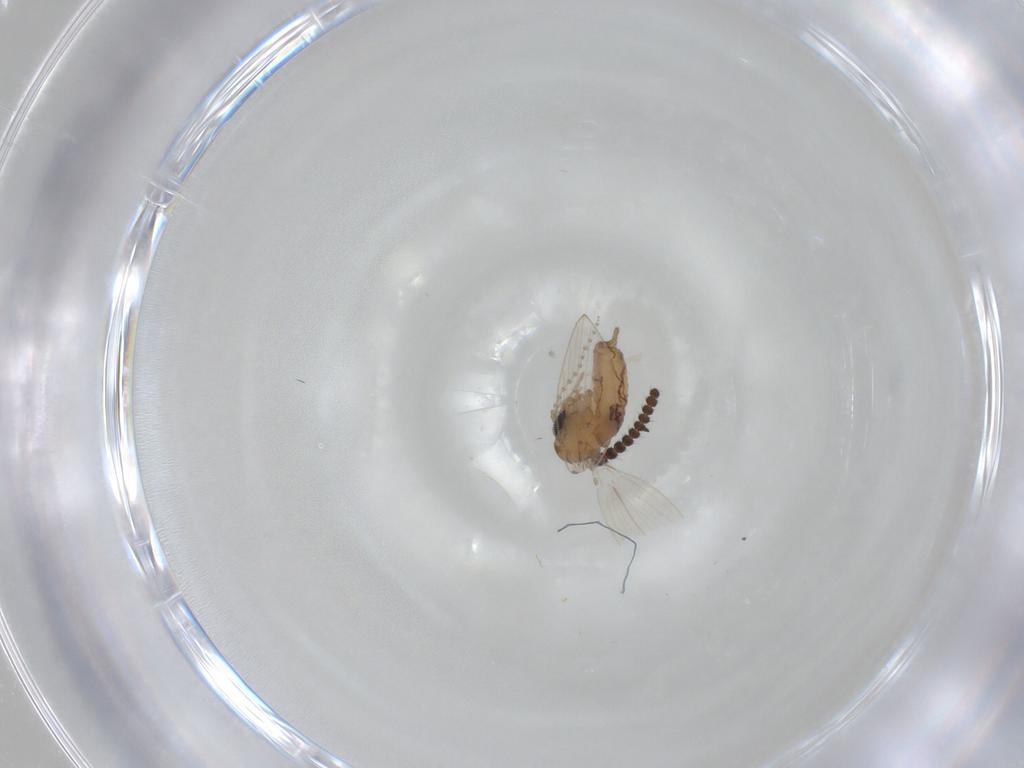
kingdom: Animalia
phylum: Arthropoda
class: Insecta
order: Diptera
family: Psychodidae
